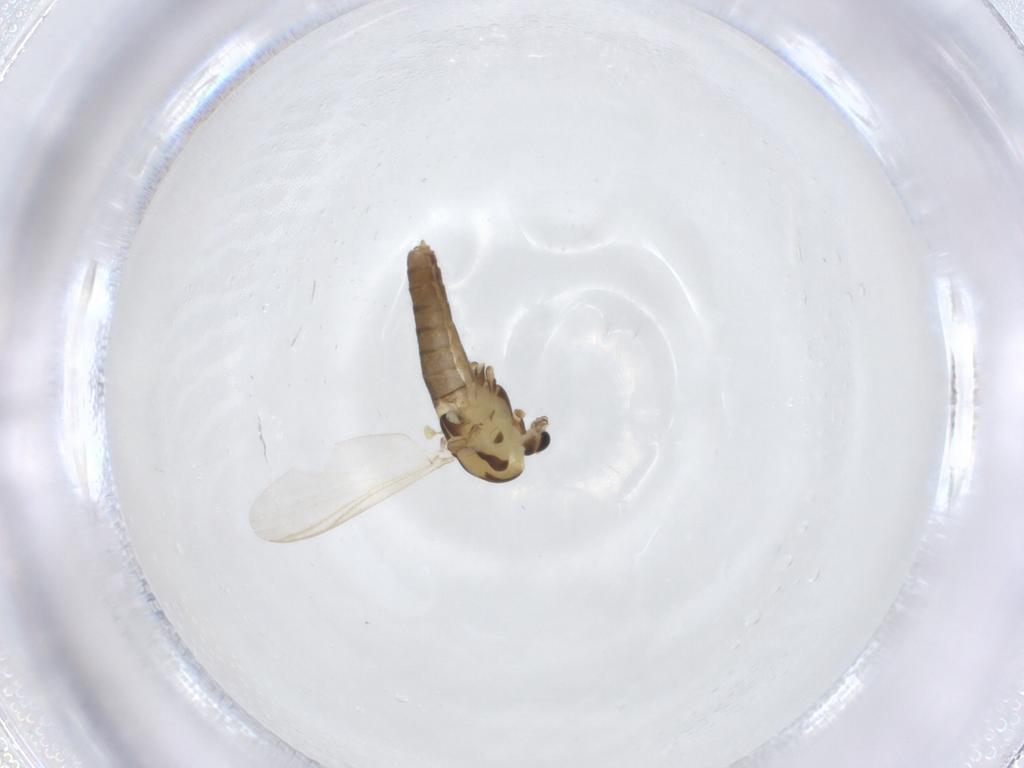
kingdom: Animalia
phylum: Arthropoda
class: Insecta
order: Diptera
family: Chironomidae
